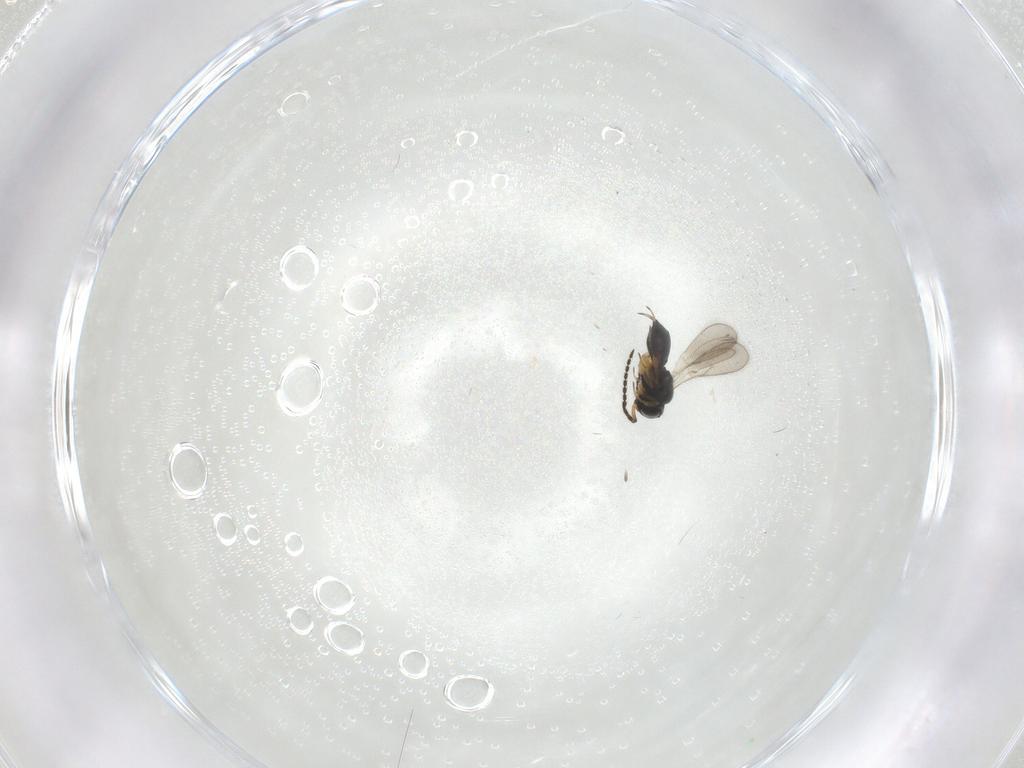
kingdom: Animalia
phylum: Arthropoda
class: Insecta
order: Hymenoptera
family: Scelionidae
